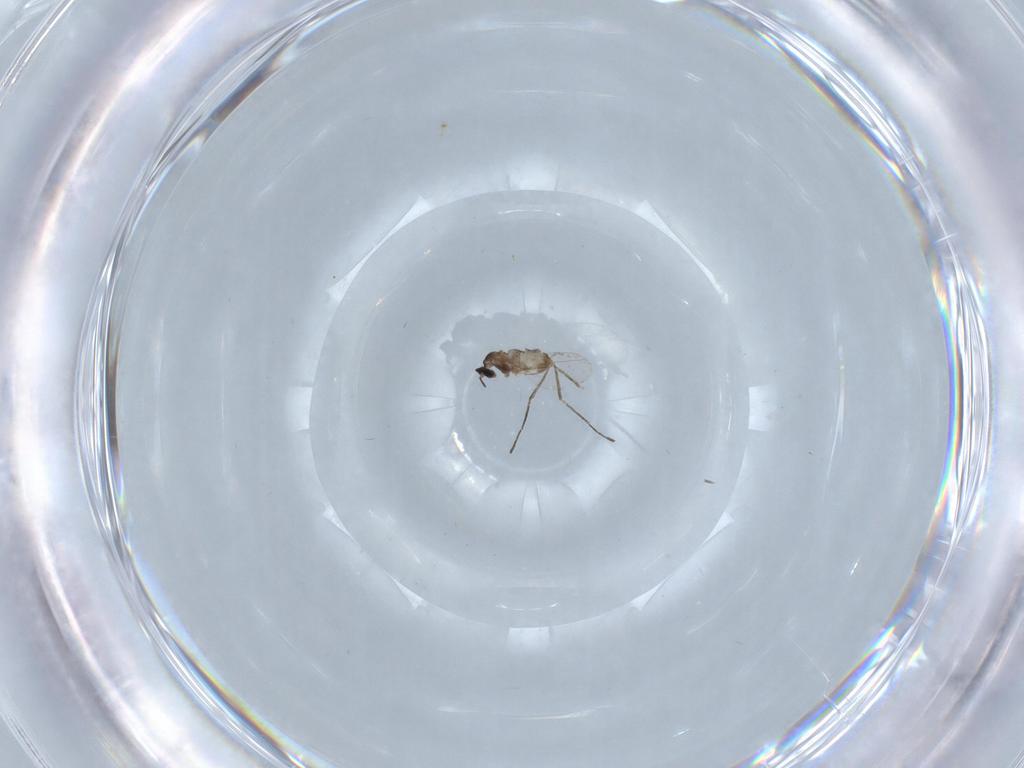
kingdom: Animalia
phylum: Arthropoda
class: Insecta
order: Diptera
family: Cecidomyiidae
